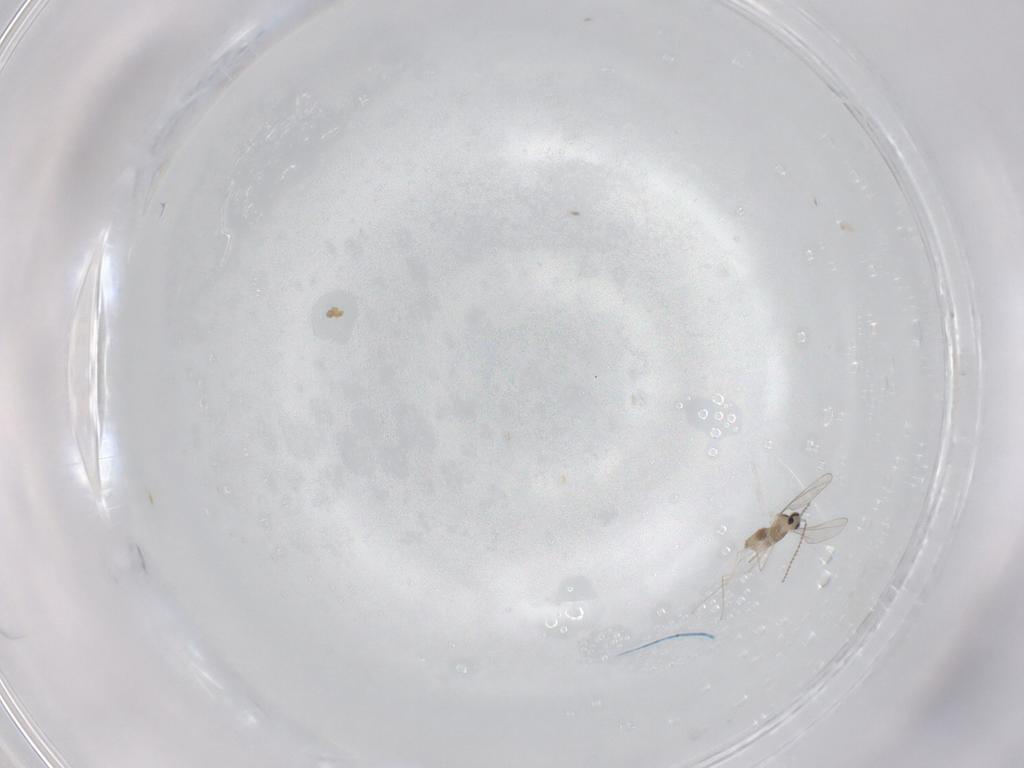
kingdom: Animalia
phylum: Arthropoda
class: Insecta
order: Diptera
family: Cecidomyiidae
